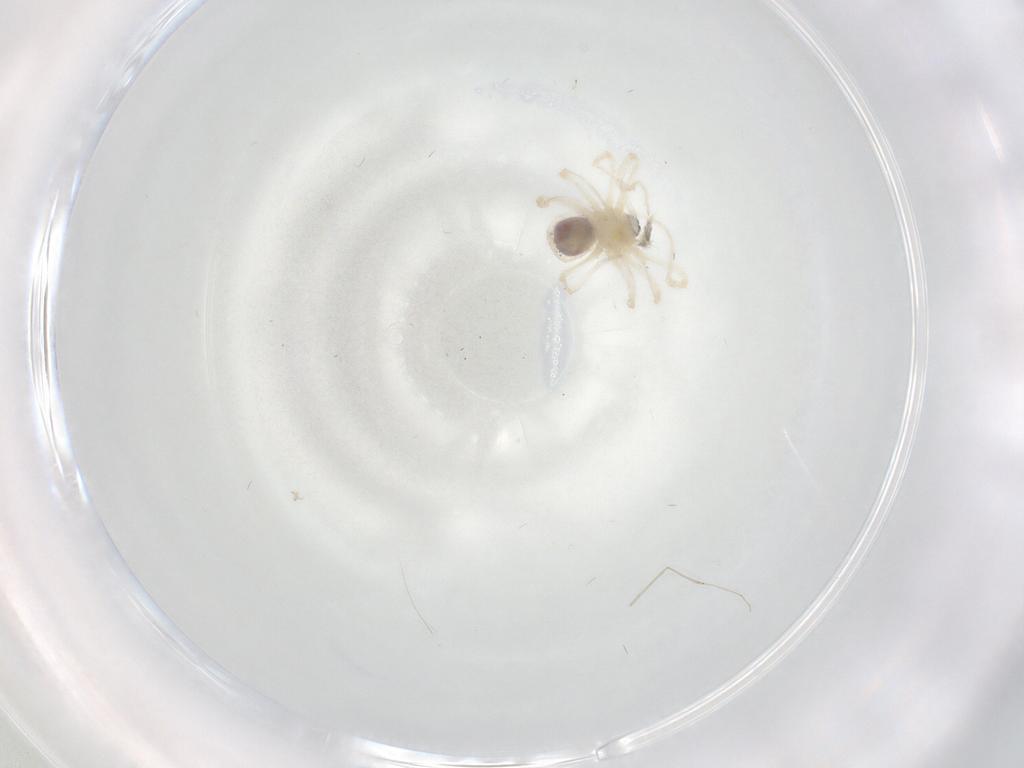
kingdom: Animalia
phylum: Arthropoda
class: Arachnida
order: Araneae
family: Pholcidae
